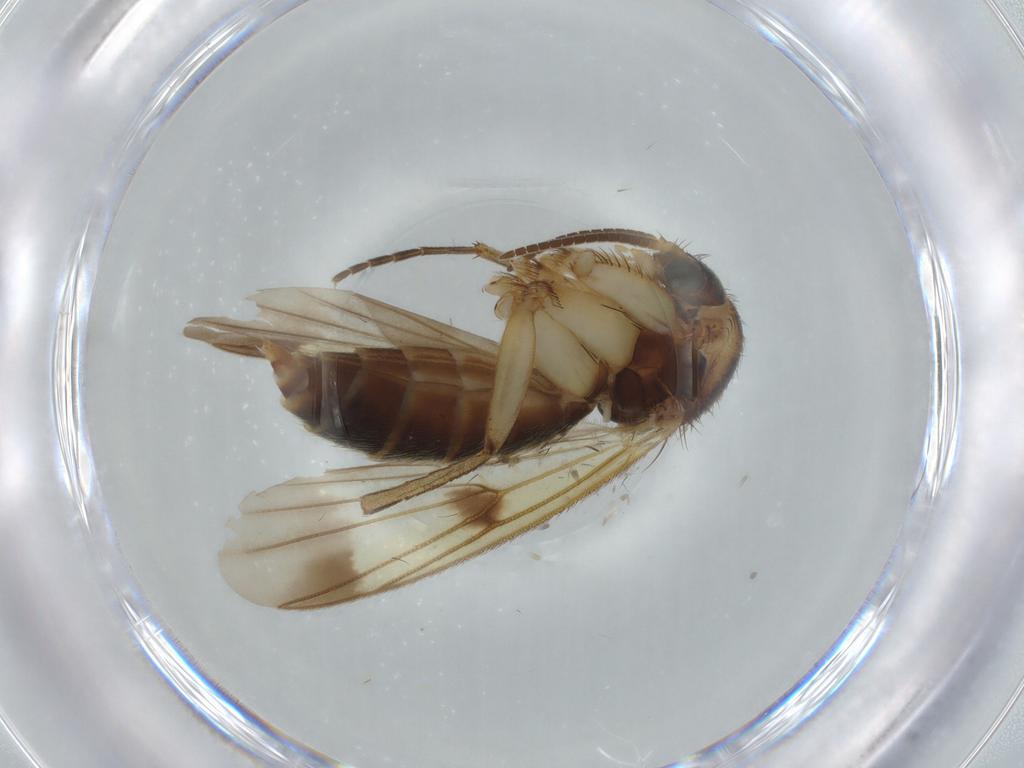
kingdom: Animalia
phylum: Arthropoda
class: Insecta
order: Diptera
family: Mycetophilidae
